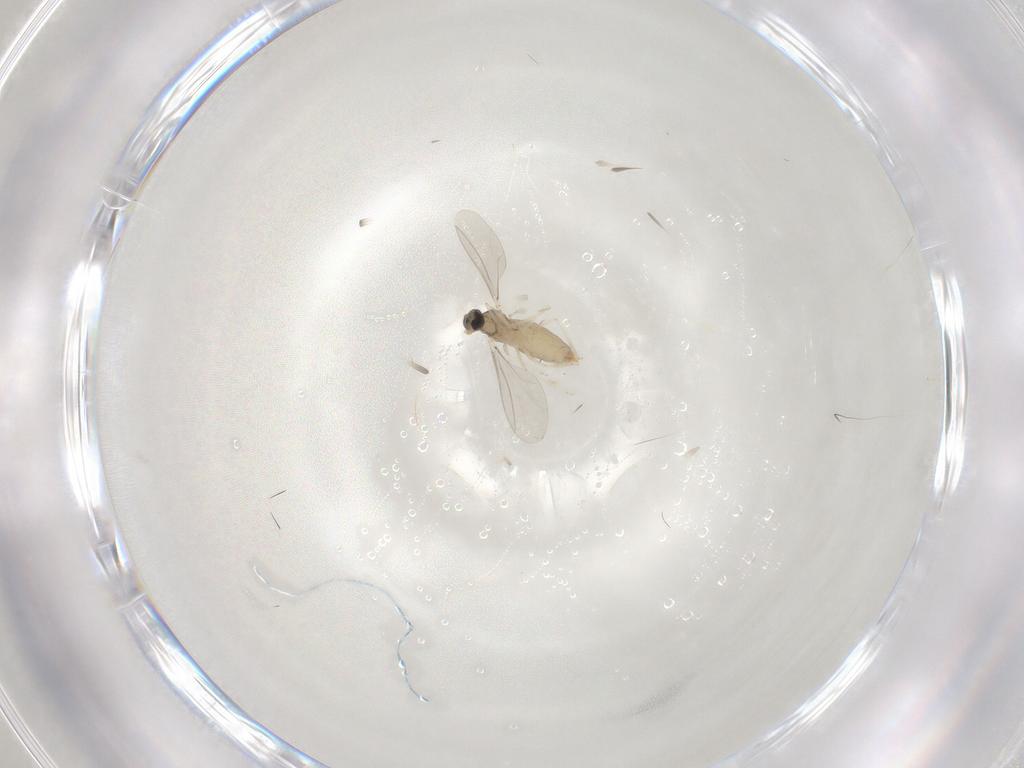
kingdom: Animalia
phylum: Arthropoda
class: Insecta
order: Diptera
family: Cecidomyiidae
